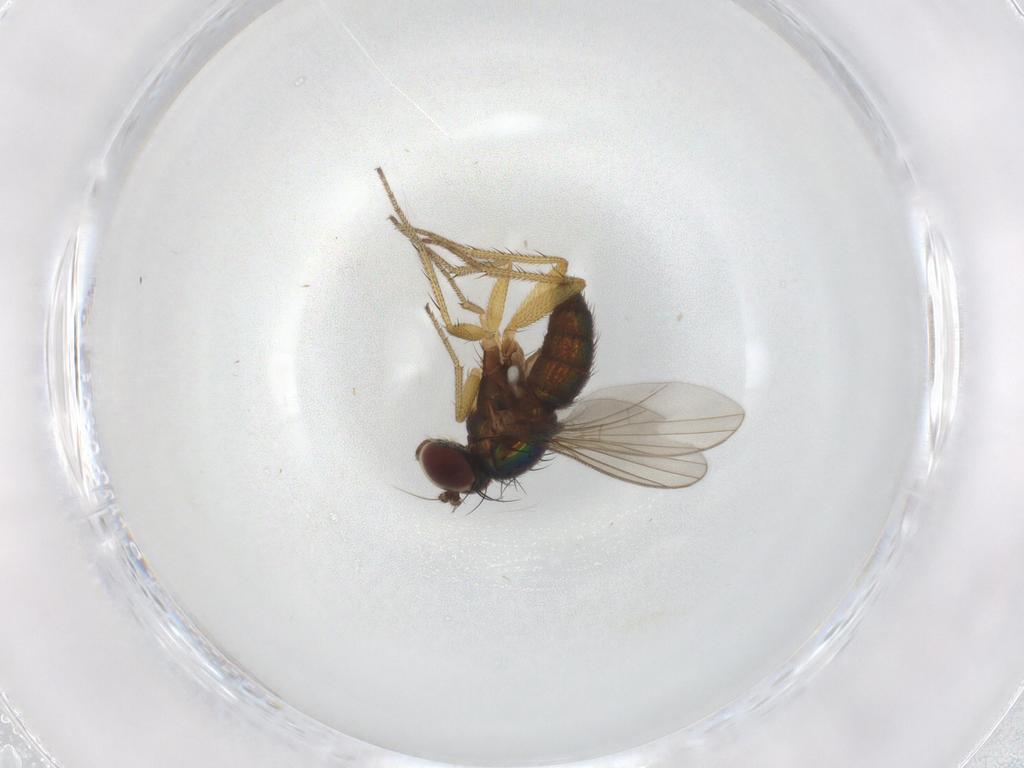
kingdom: Animalia
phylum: Arthropoda
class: Insecta
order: Diptera
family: Dolichopodidae
